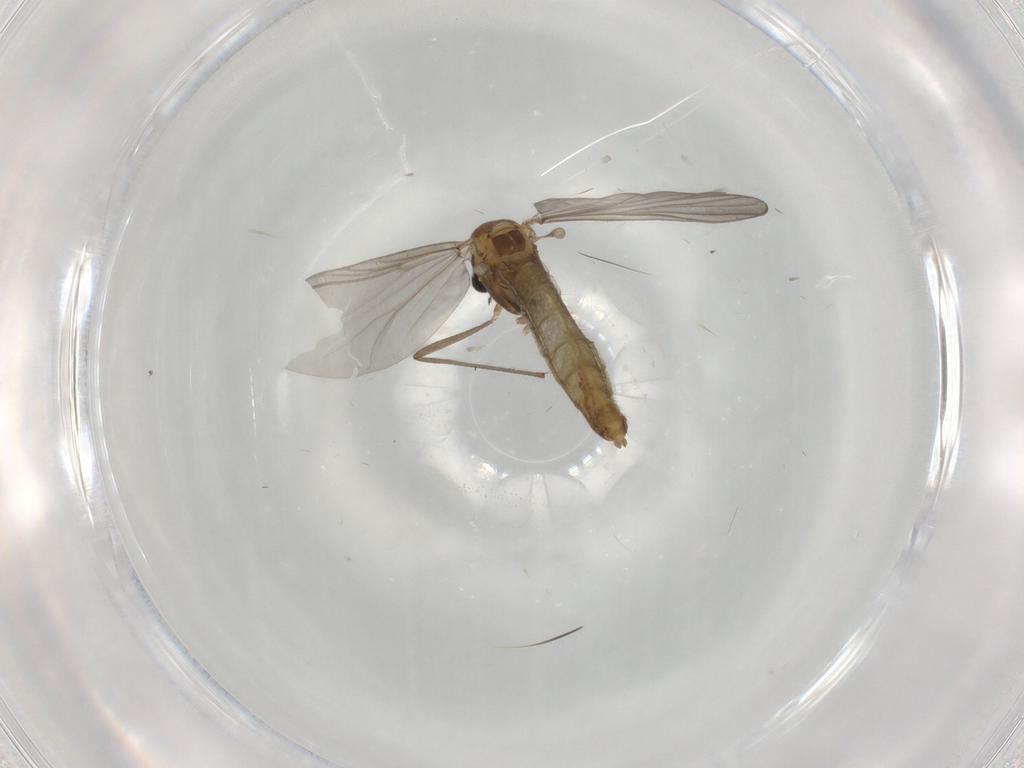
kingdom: Animalia
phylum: Arthropoda
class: Insecta
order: Diptera
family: Chironomidae
